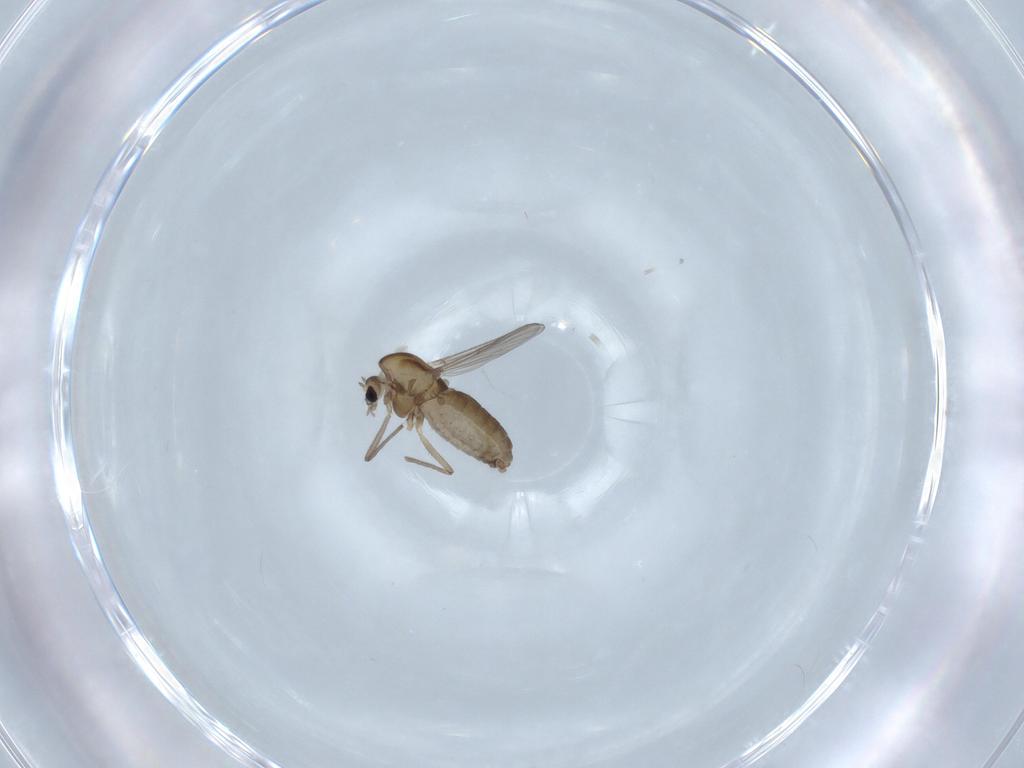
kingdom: Animalia
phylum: Arthropoda
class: Insecta
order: Diptera
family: Chironomidae
